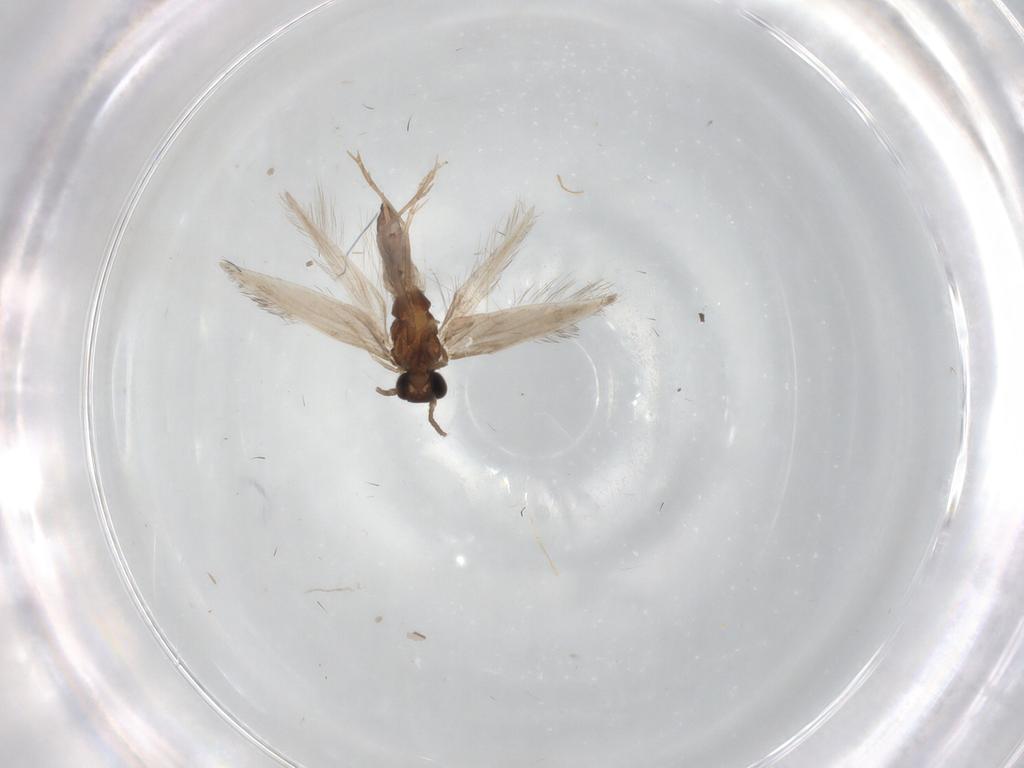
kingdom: Animalia
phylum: Arthropoda
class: Insecta
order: Trichoptera
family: Hydroptilidae
